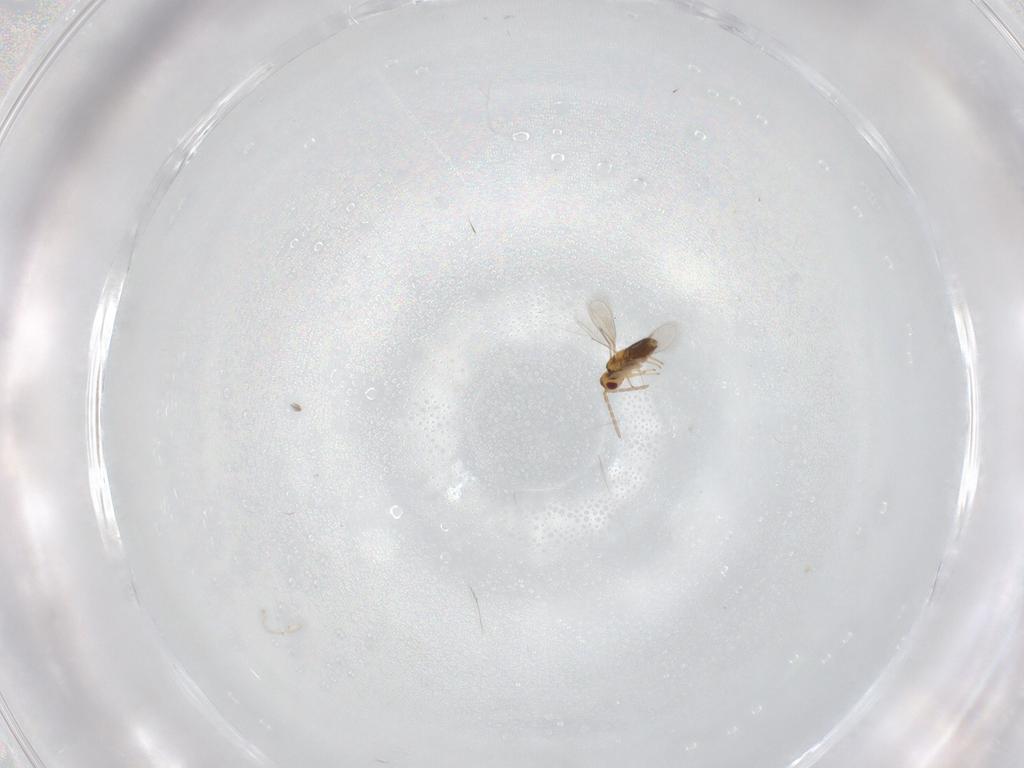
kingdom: Animalia
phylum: Arthropoda
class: Insecta
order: Hymenoptera
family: Aphelinidae
